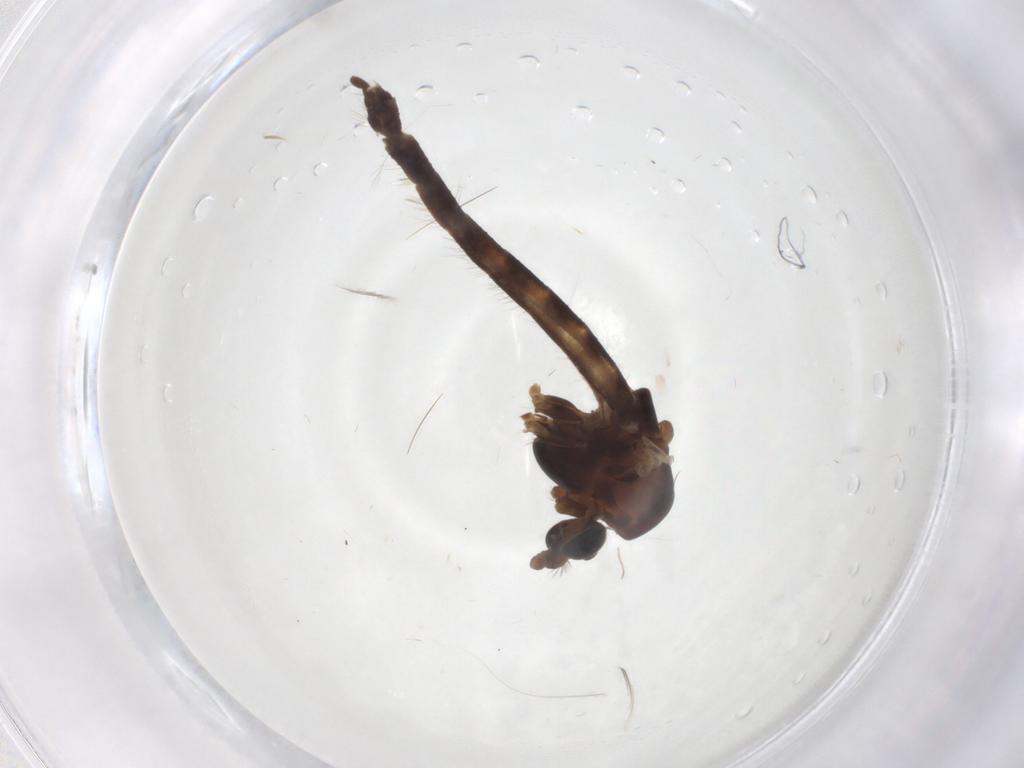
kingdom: Animalia
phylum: Arthropoda
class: Insecta
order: Diptera
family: Chironomidae
